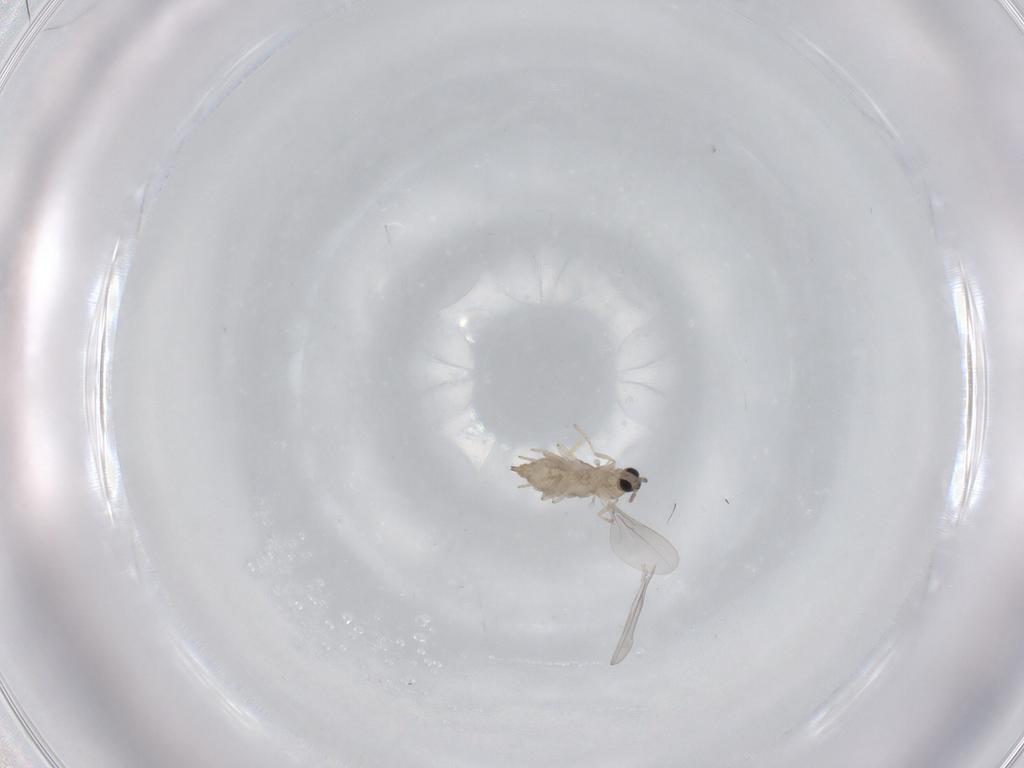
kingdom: Animalia
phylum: Arthropoda
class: Insecta
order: Diptera
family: Cecidomyiidae
